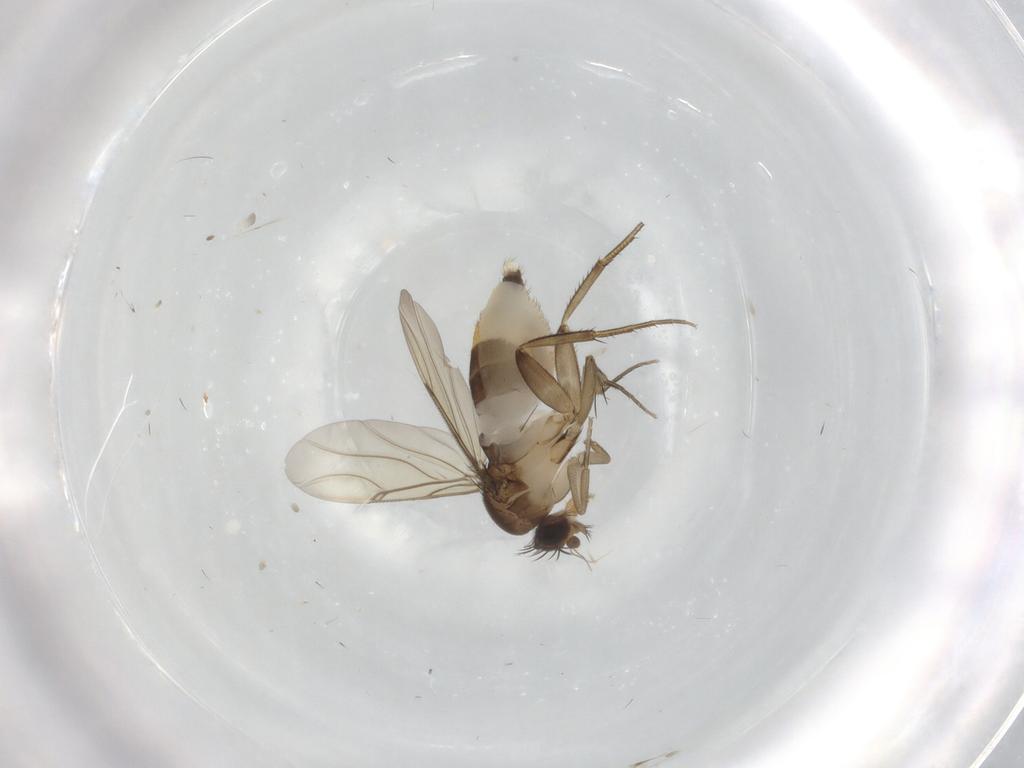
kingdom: Animalia
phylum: Arthropoda
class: Insecta
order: Diptera
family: Phoridae
